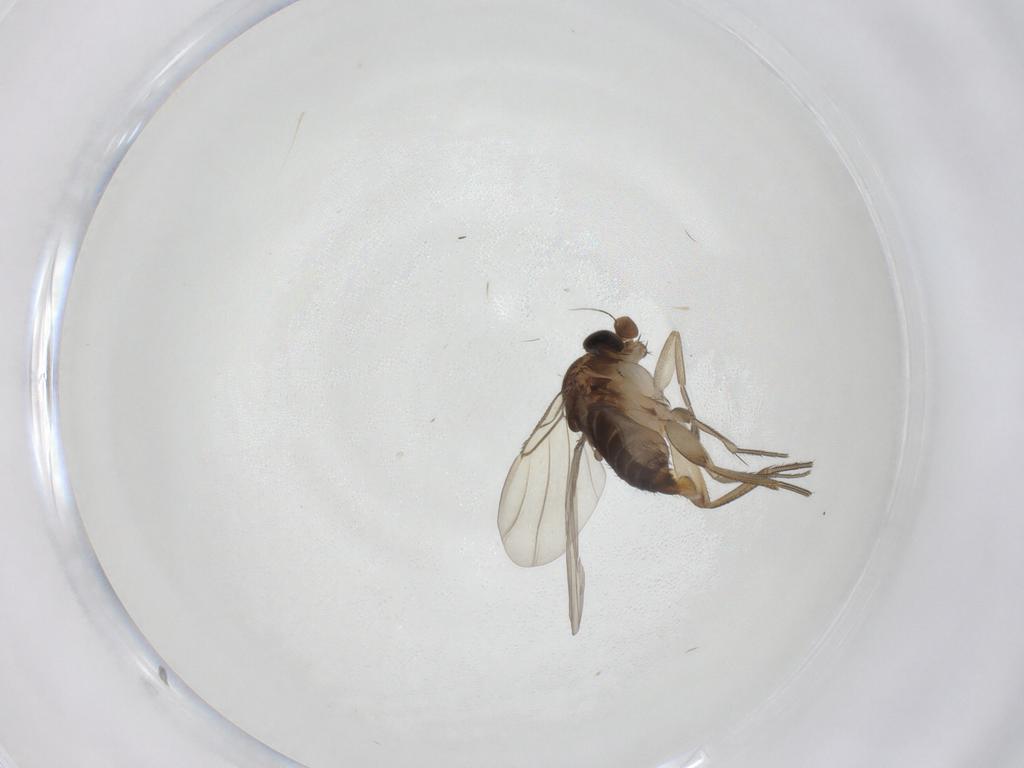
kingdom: Animalia
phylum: Arthropoda
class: Insecta
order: Diptera
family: Phoridae
